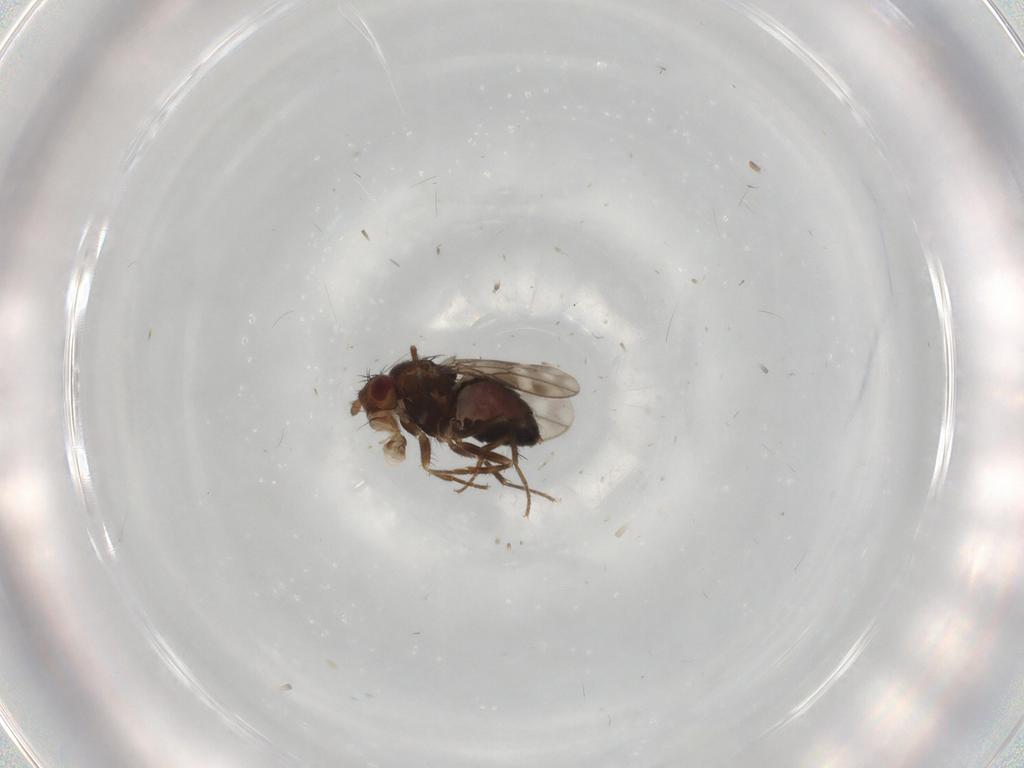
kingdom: Animalia
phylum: Arthropoda
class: Insecta
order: Diptera
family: Sphaeroceridae
